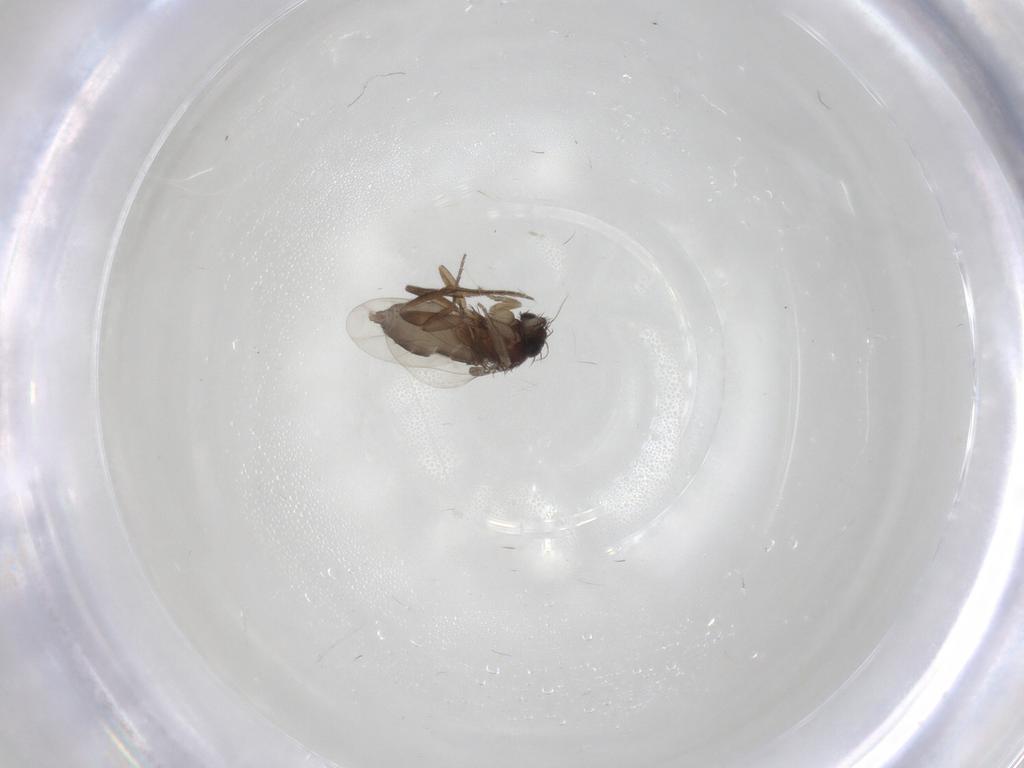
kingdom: Animalia
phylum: Arthropoda
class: Insecta
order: Diptera
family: Phoridae
